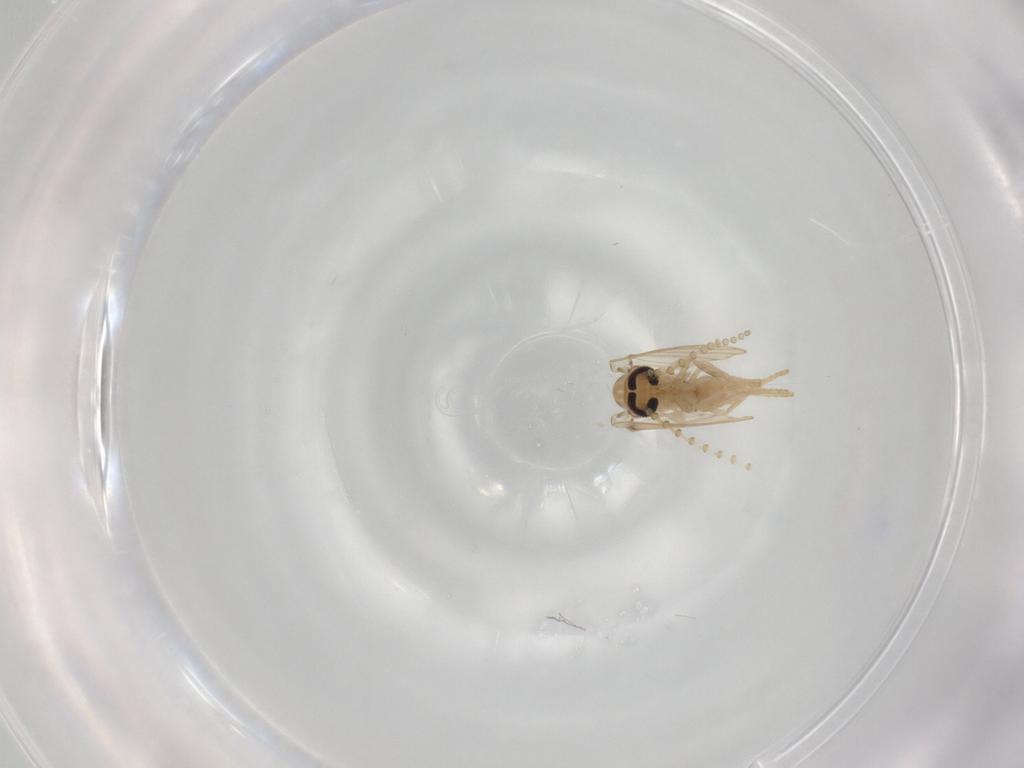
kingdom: Animalia
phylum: Arthropoda
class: Insecta
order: Diptera
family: Psychodidae
